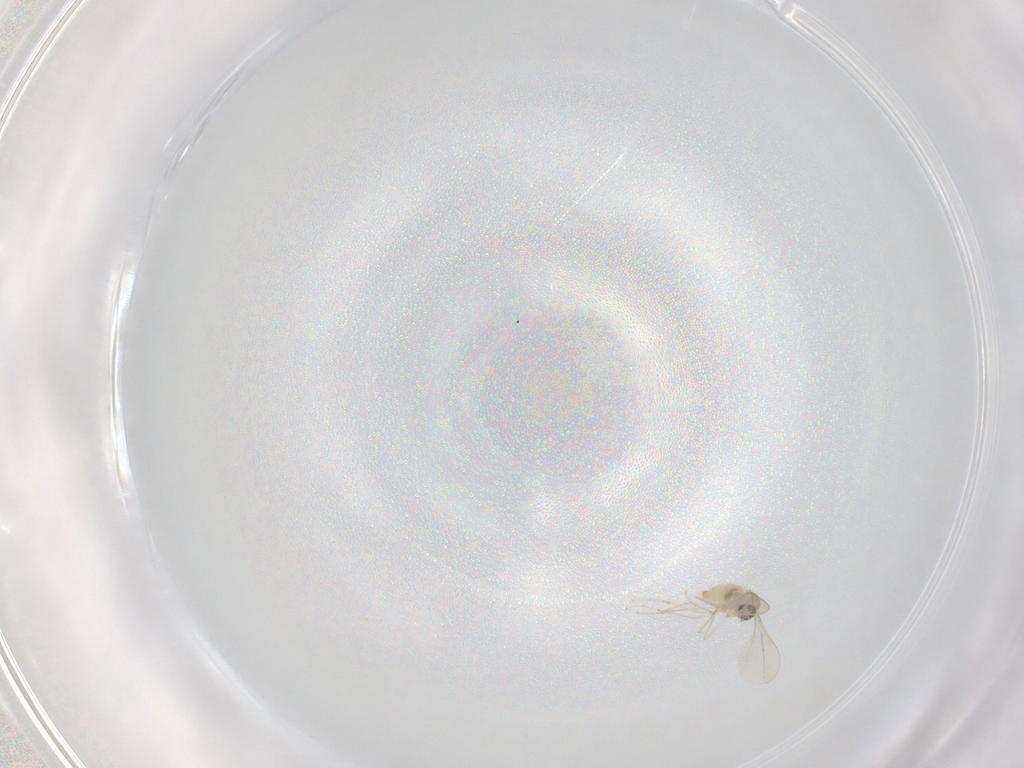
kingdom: Animalia
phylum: Arthropoda
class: Insecta
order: Diptera
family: Cecidomyiidae
